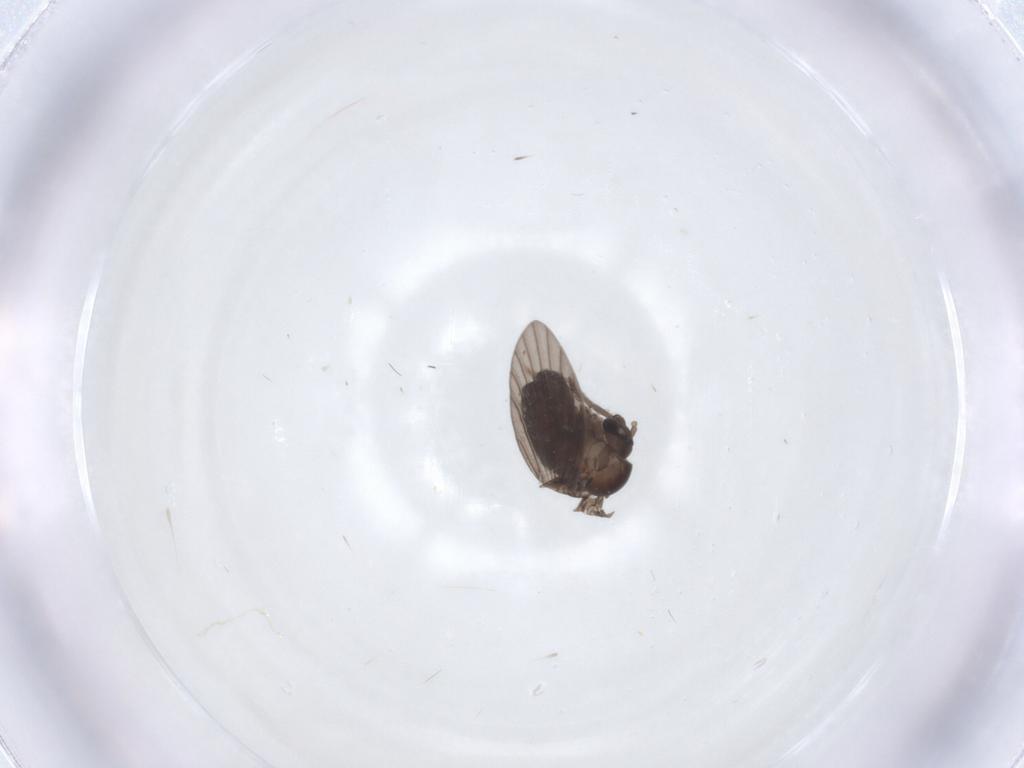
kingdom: Animalia
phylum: Arthropoda
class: Insecta
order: Diptera
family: Psychodidae
